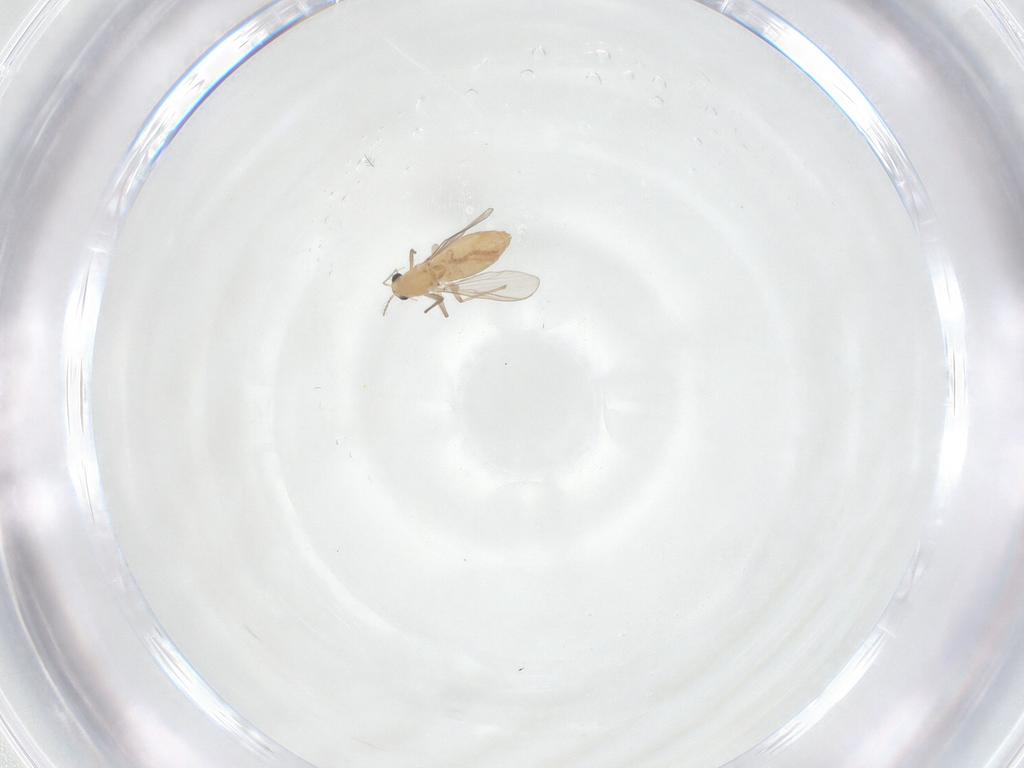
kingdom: Animalia
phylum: Arthropoda
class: Insecta
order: Diptera
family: Chironomidae
